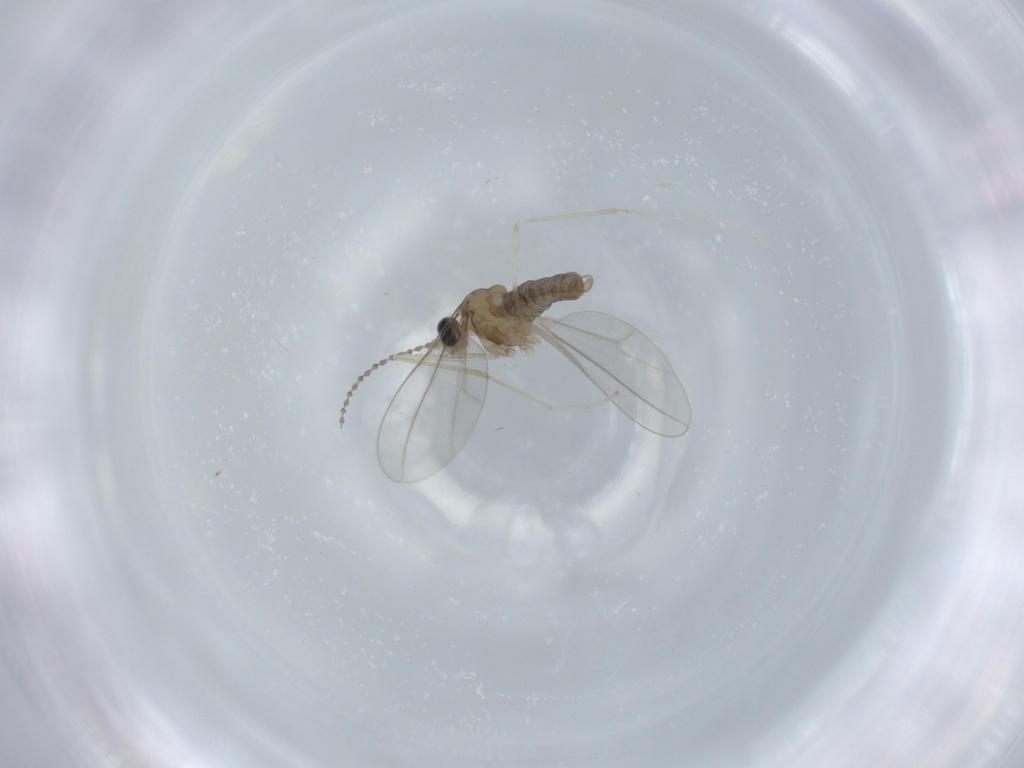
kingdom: Animalia
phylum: Arthropoda
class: Insecta
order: Diptera
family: Cecidomyiidae
